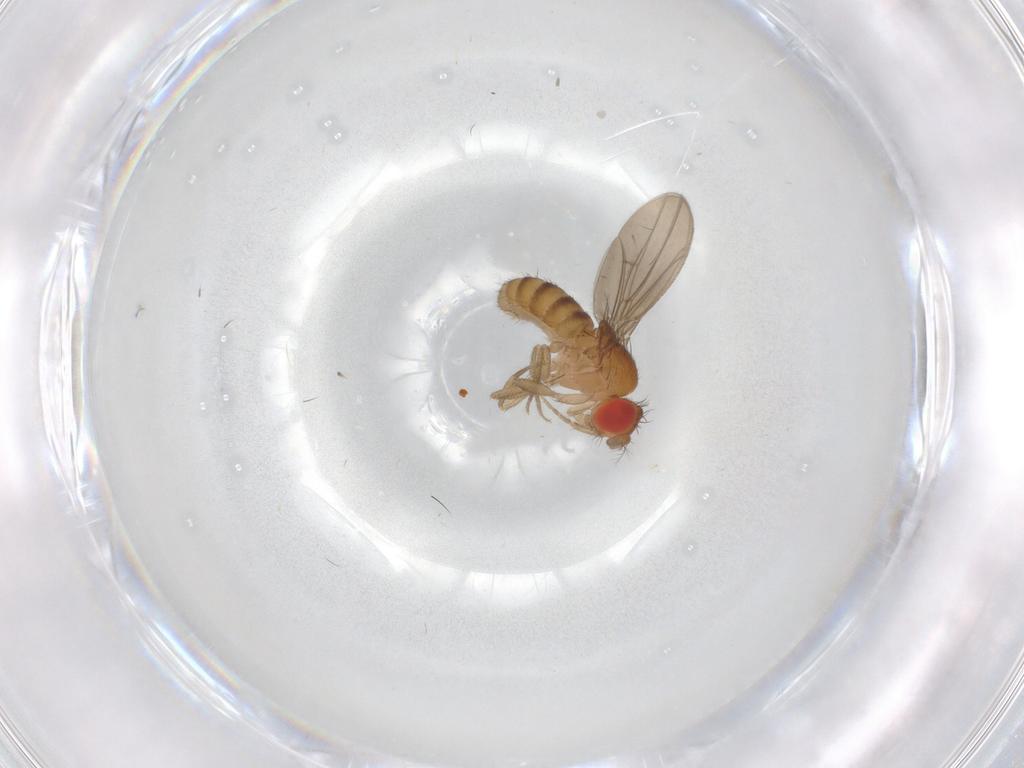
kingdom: Animalia
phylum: Arthropoda
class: Insecta
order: Diptera
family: Drosophilidae
